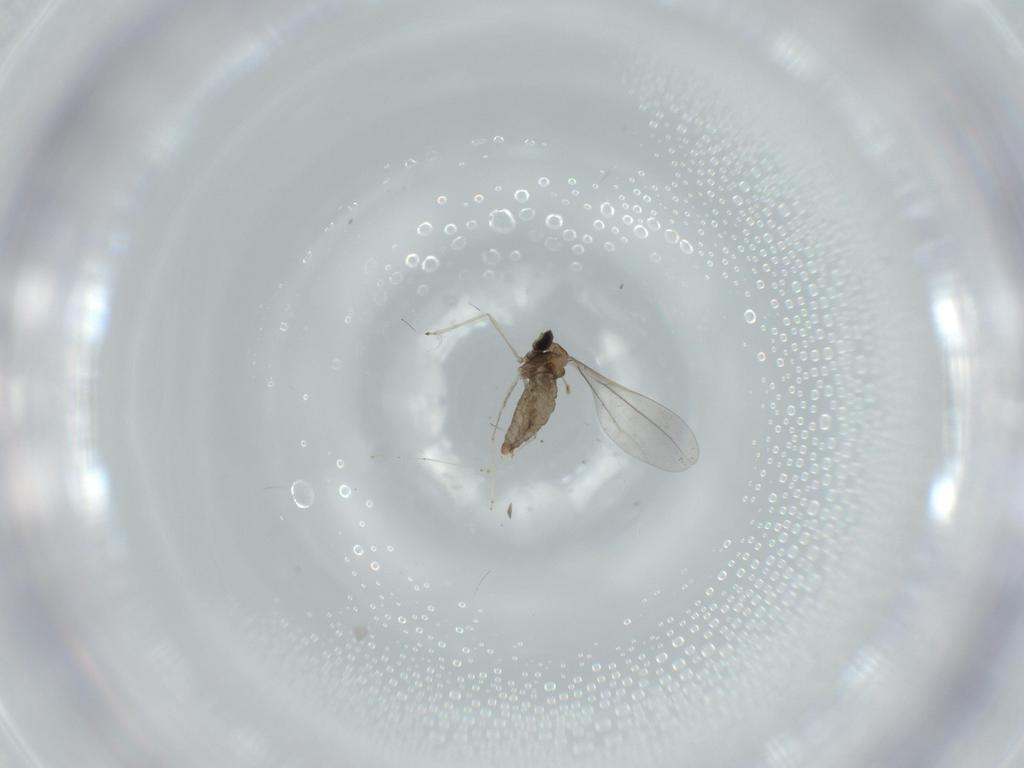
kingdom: Animalia
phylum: Arthropoda
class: Insecta
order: Diptera
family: Cecidomyiidae
